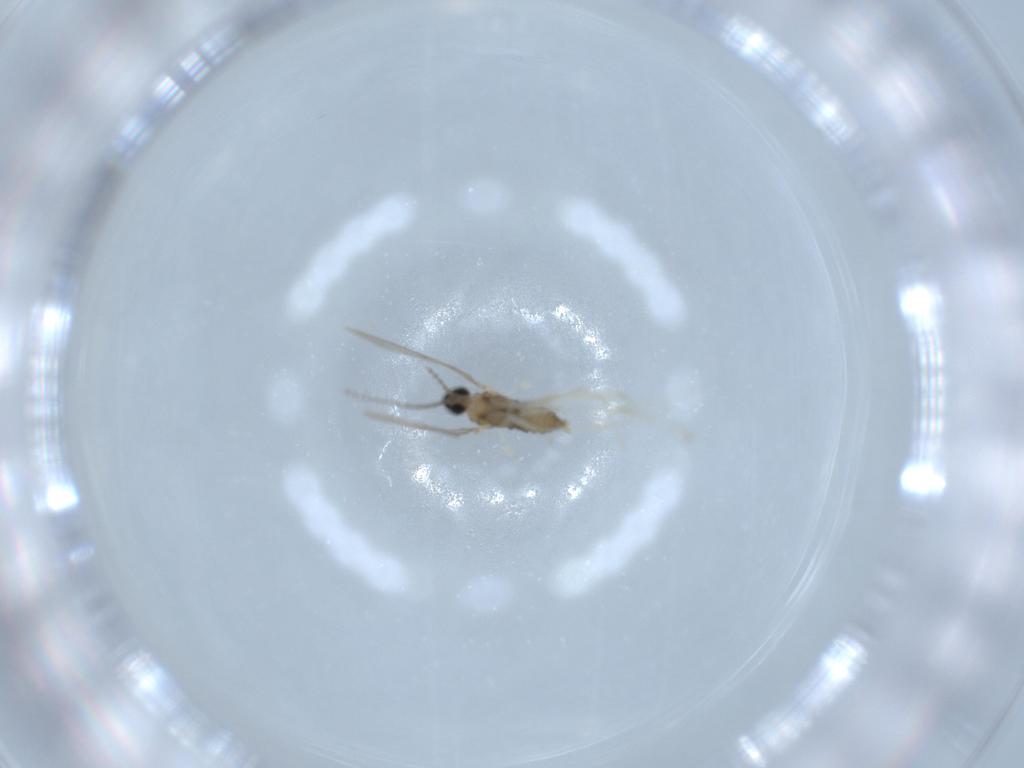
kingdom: Animalia
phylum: Arthropoda
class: Insecta
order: Diptera
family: Cecidomyiidae
